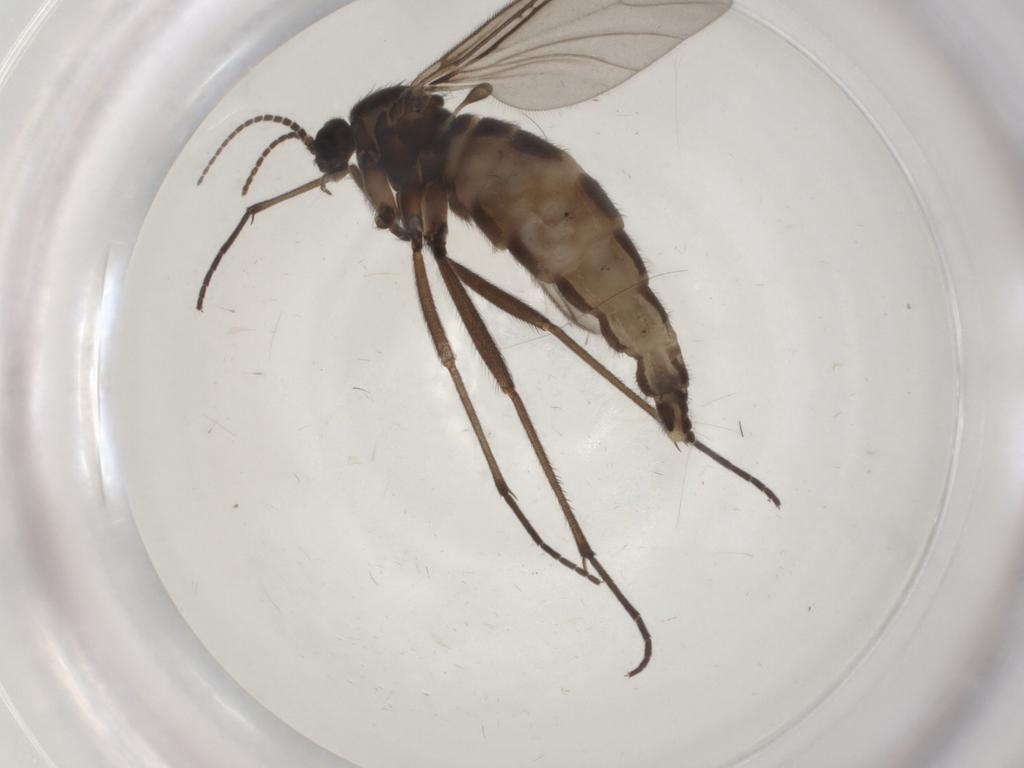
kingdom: Animalia
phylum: Arthropoda
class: Insecta
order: Diptera
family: Sciaridae
